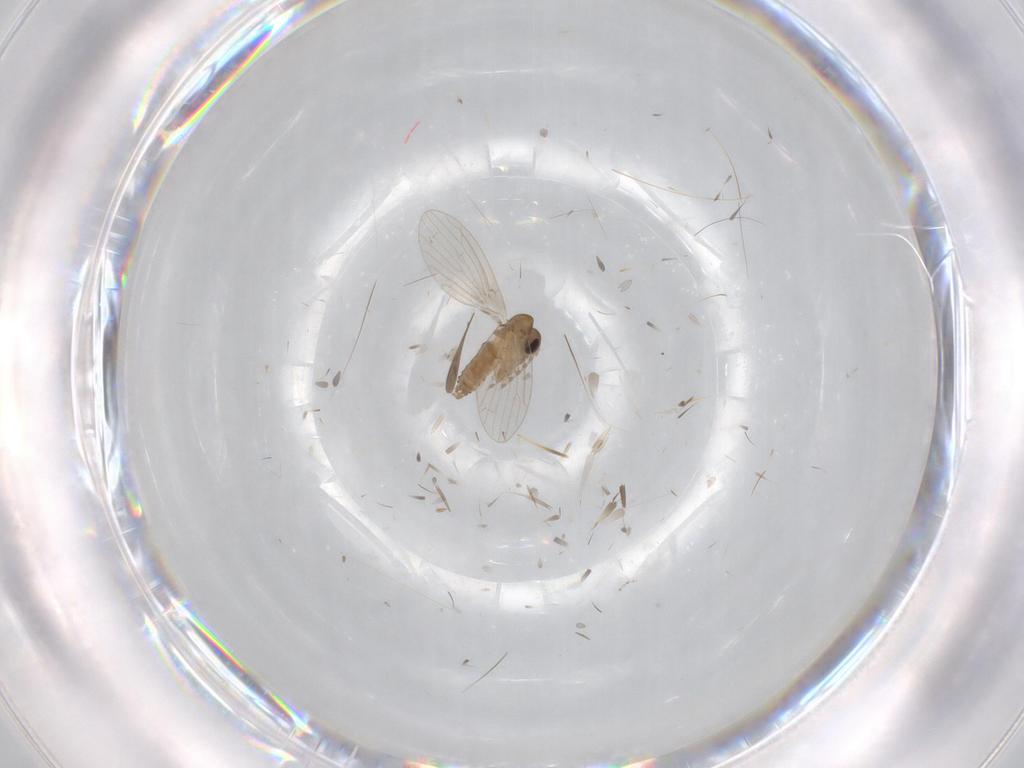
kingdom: Animalia
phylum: Arthropoda
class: Insecta
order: Diptera
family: Psychodidae
